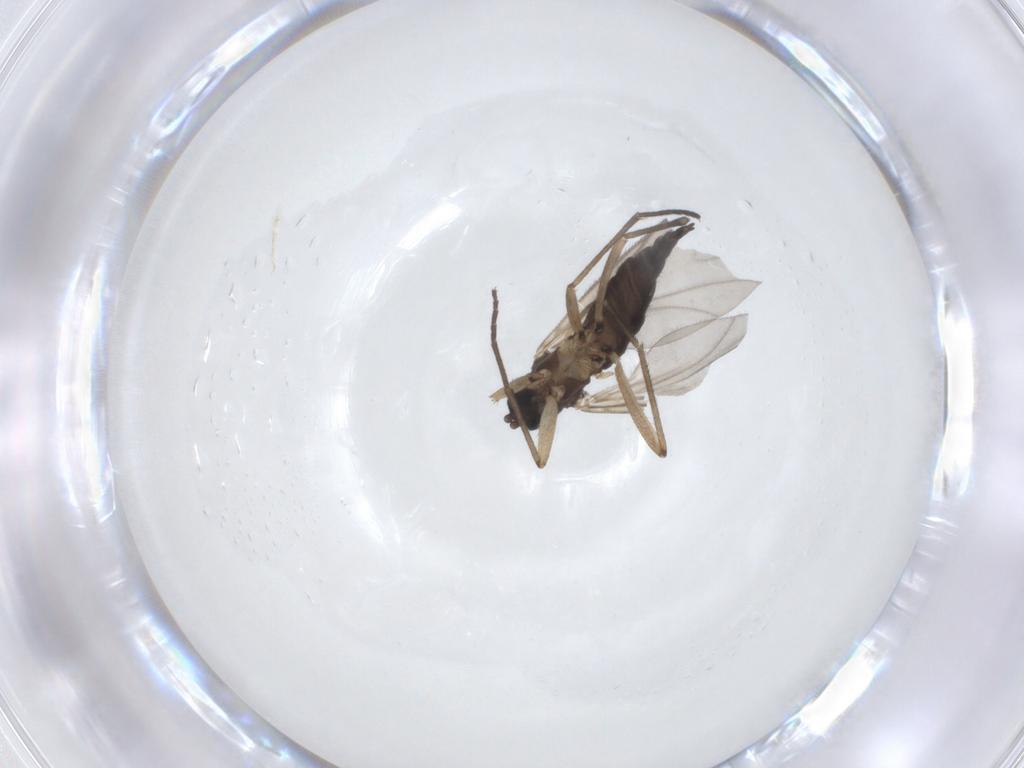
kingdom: Animalia
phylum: Arthropoda
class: Insecta
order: Diptera
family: Sciaridae
